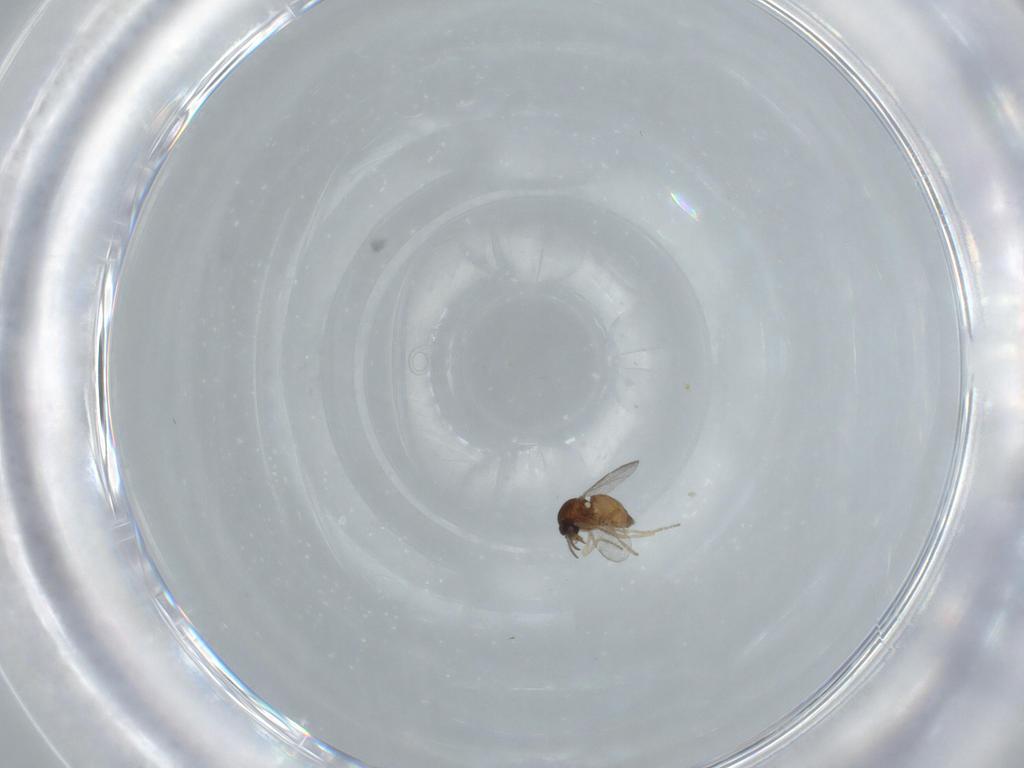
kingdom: Animalia
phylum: Arthropoda
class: Insecta
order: Diptera
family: Ceratopogonidae
